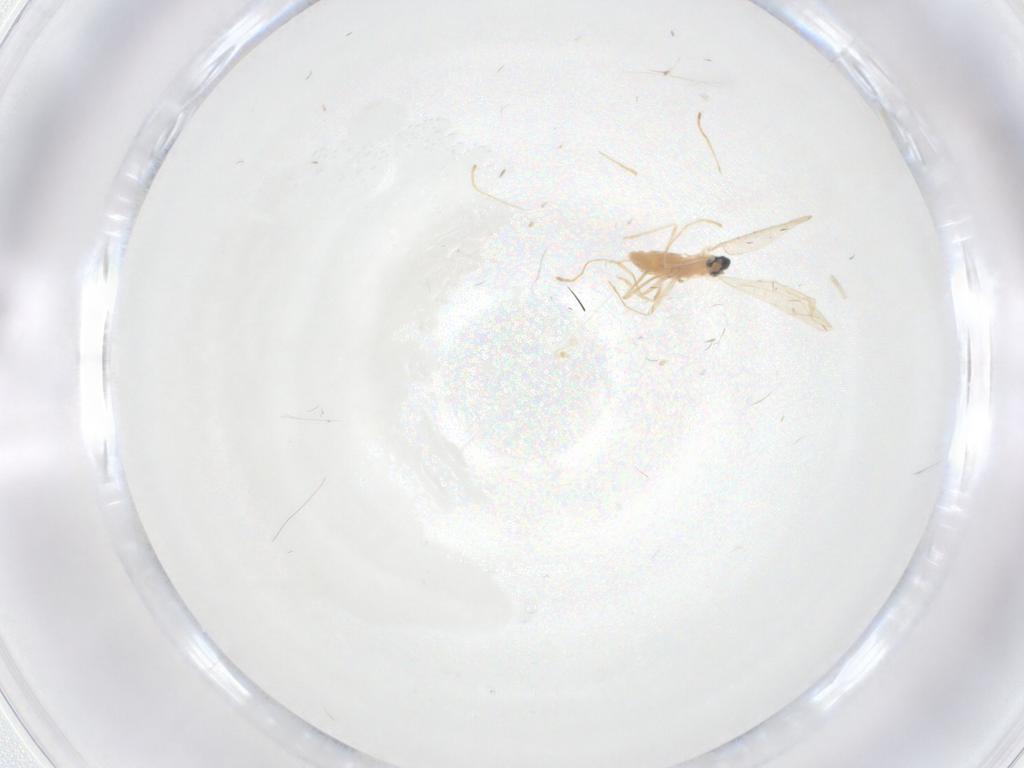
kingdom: Animalia
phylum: Arthropoda
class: Insecta
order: Diptera
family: Cecidomyiidae
